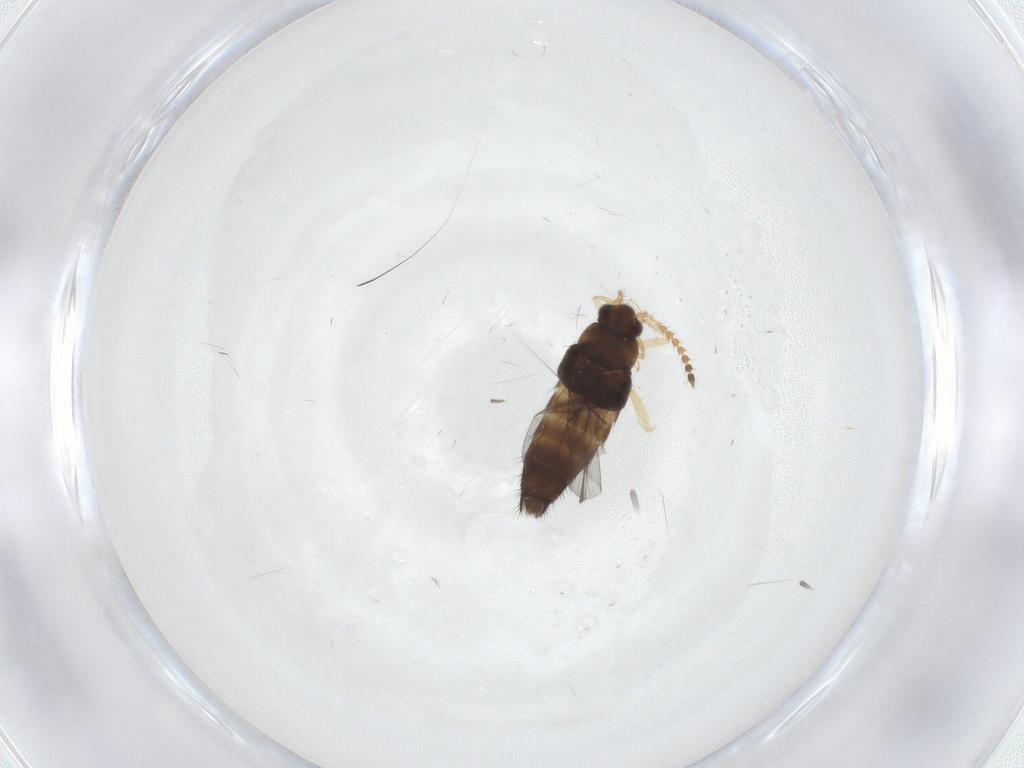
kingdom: Animalia
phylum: Arthropoda
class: Insecta
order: Coleoptera
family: Staphylinidae
